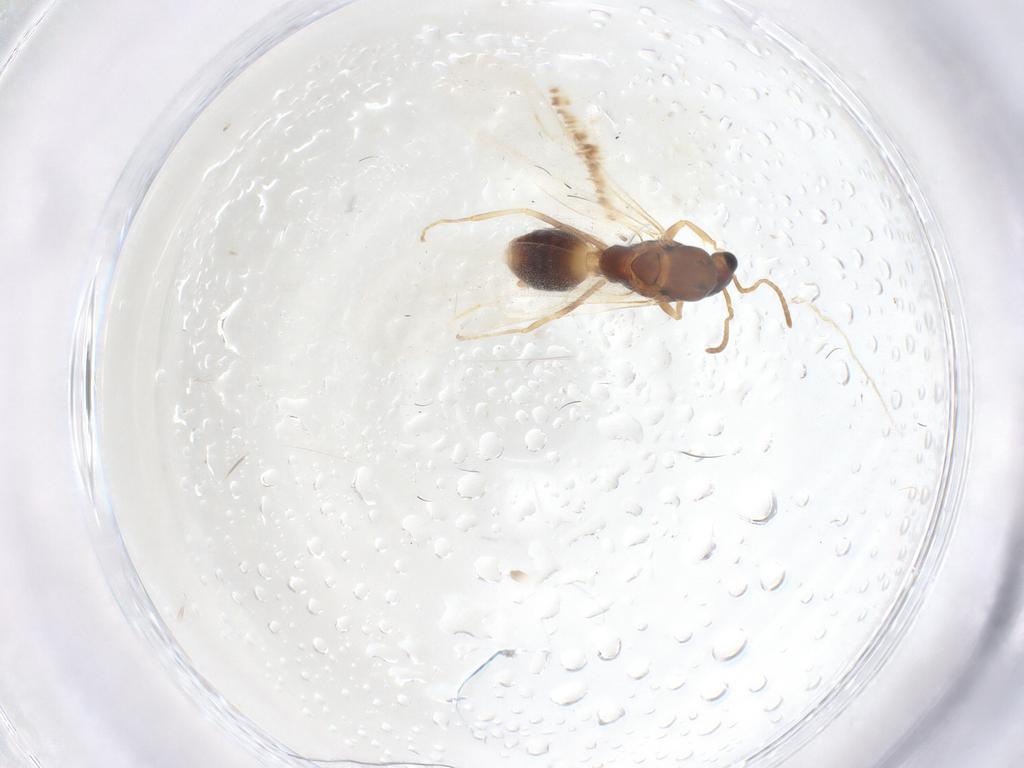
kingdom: Animalia
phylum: Arthropoda
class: Insecta
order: Hymenoptera
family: Formicidae
